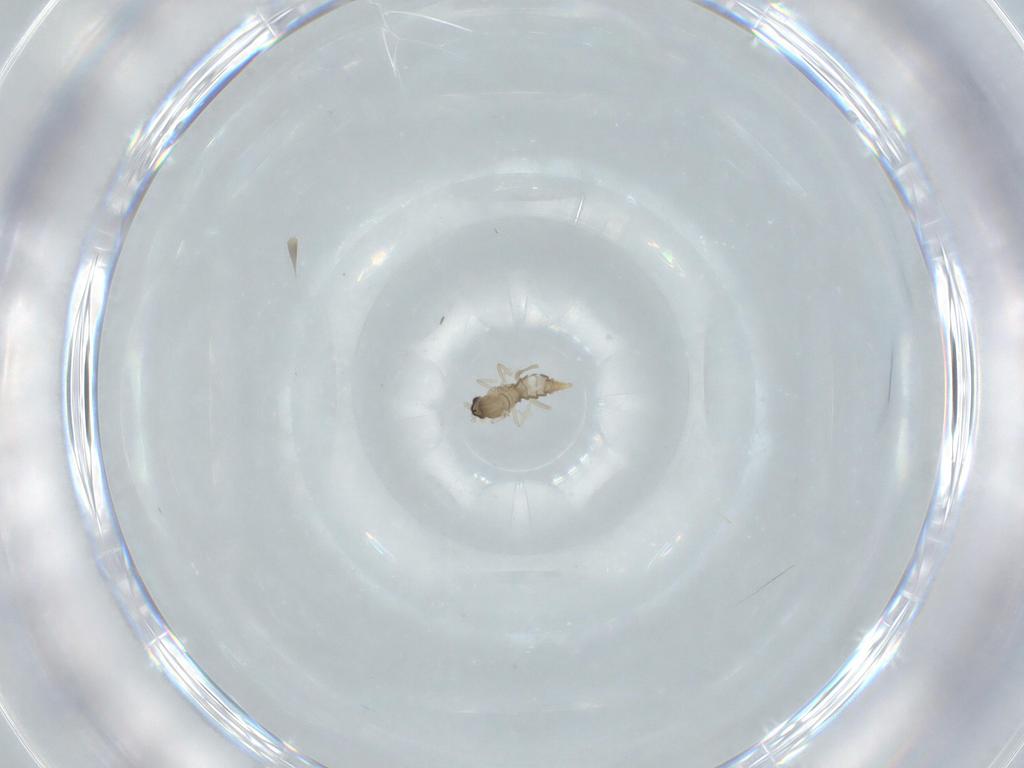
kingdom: Animalia
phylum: Arthropoda
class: Insecta
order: Diptera
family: Cecidomyiidae
